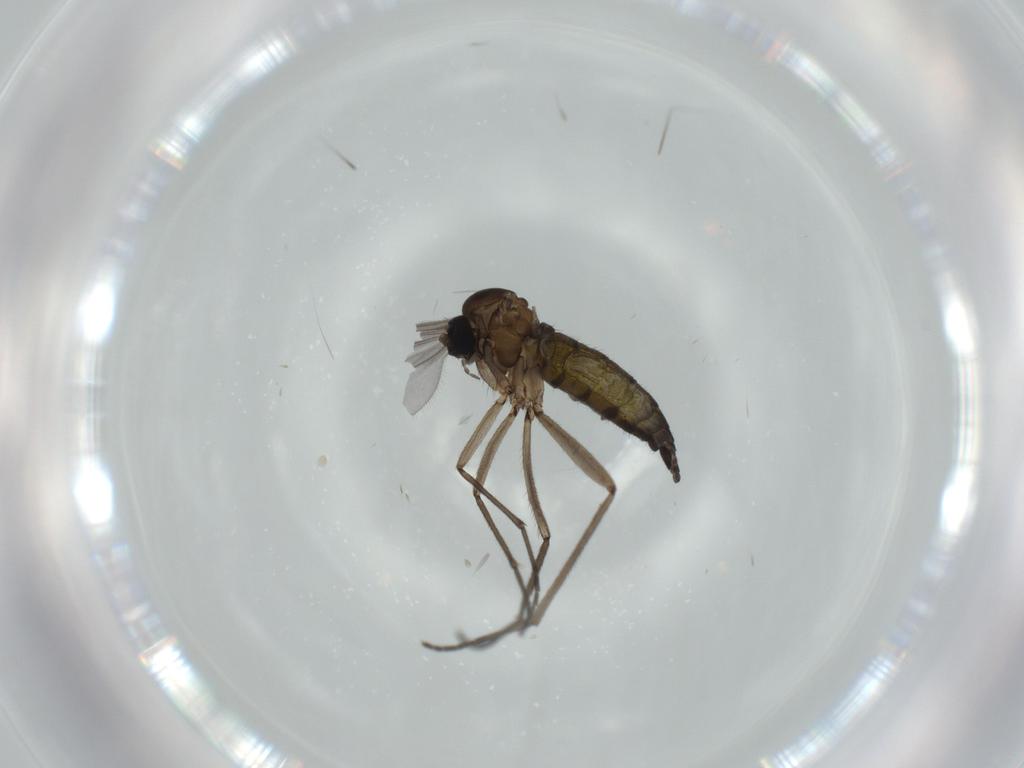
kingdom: Animalia
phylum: Arthropoda
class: Insecta
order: Diptera
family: Sciaridae
